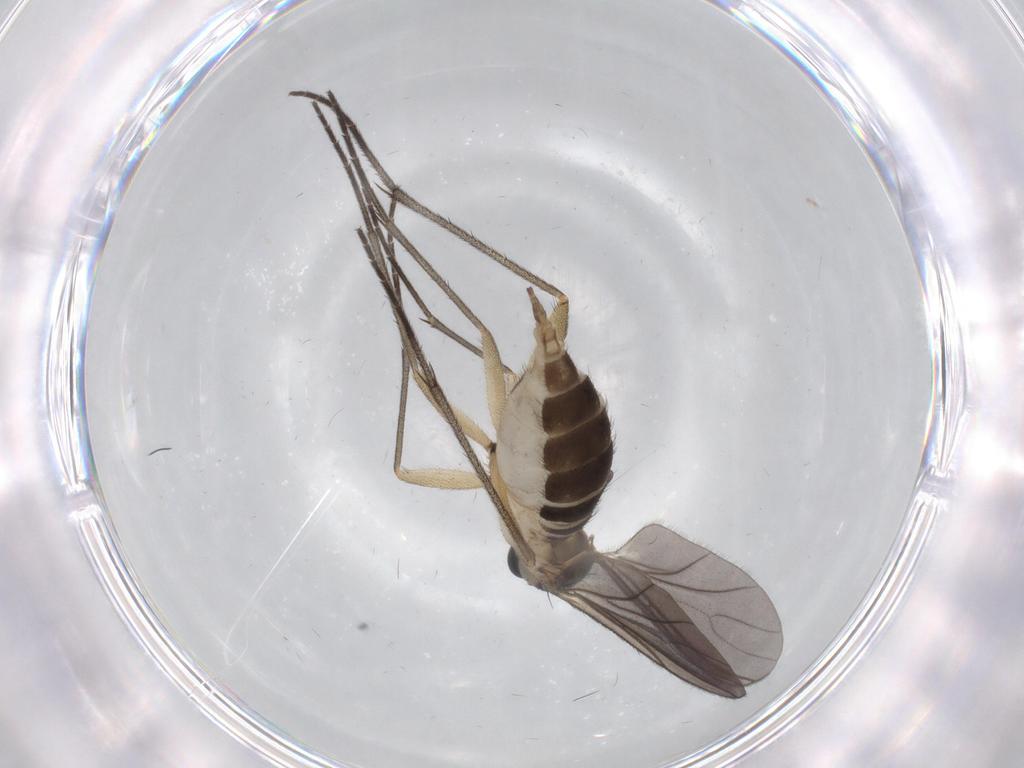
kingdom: Animalia
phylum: Arthropoda
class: Insecta
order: Diptera
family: Sciaridae
